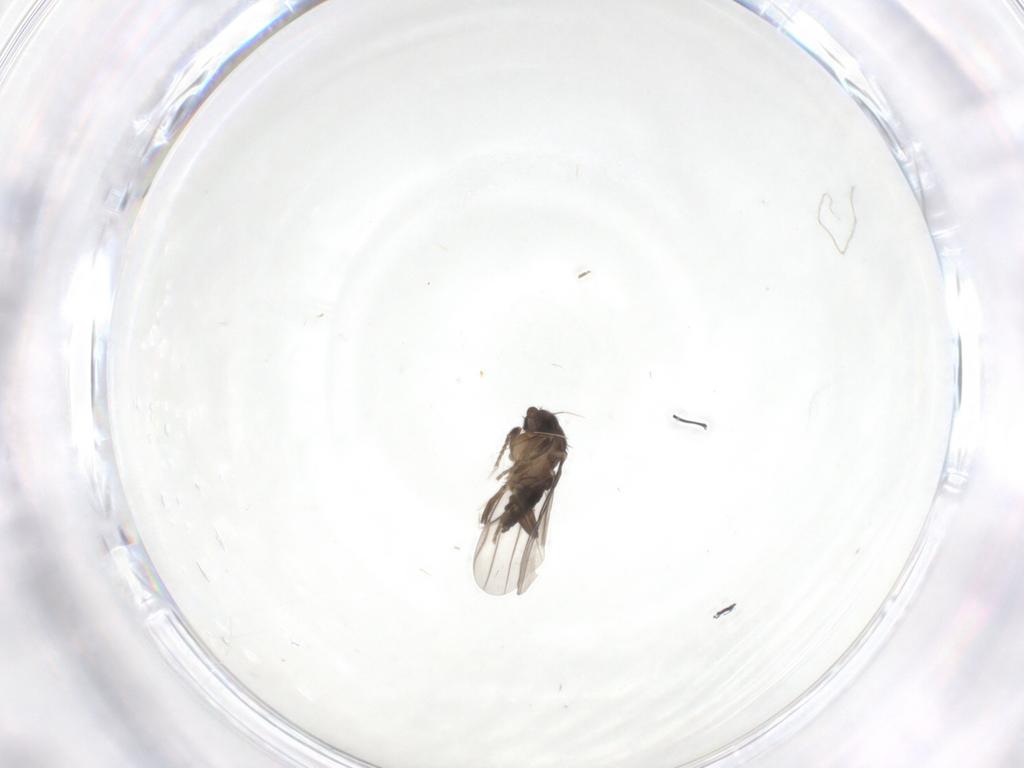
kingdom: Animalia
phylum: Arthropoda
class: Insecta
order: Diptera
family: Phoridae
